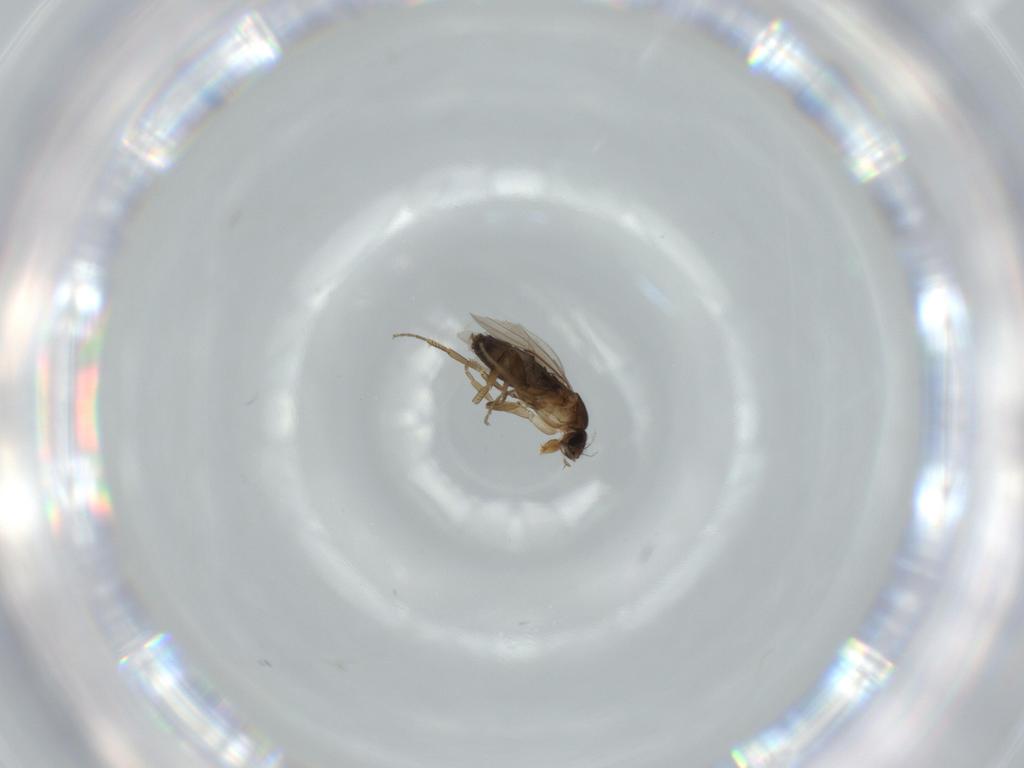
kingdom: Animalia
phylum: Arthropoda
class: Insecta
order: Diptera
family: Phoridae
